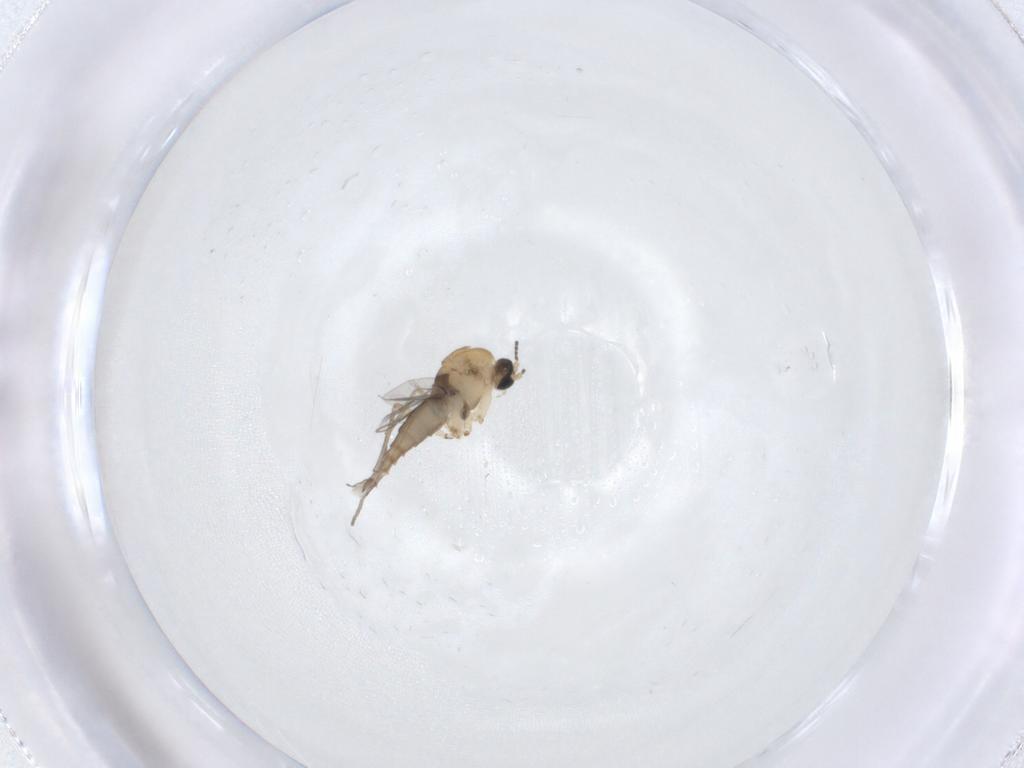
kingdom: Animalia
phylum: Arthropoda
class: Insecta
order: Diptera
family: Sciaridae
